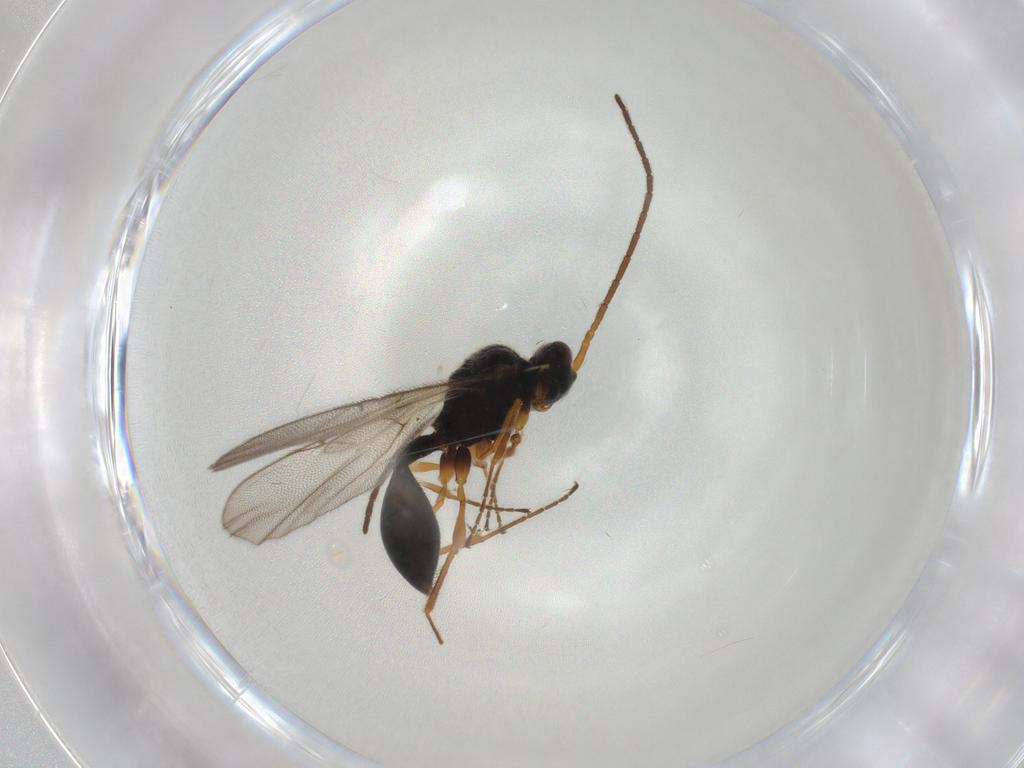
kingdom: Animalia
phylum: Arthropoda
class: Insecta
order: Hymenoptera
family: Diapriidae
